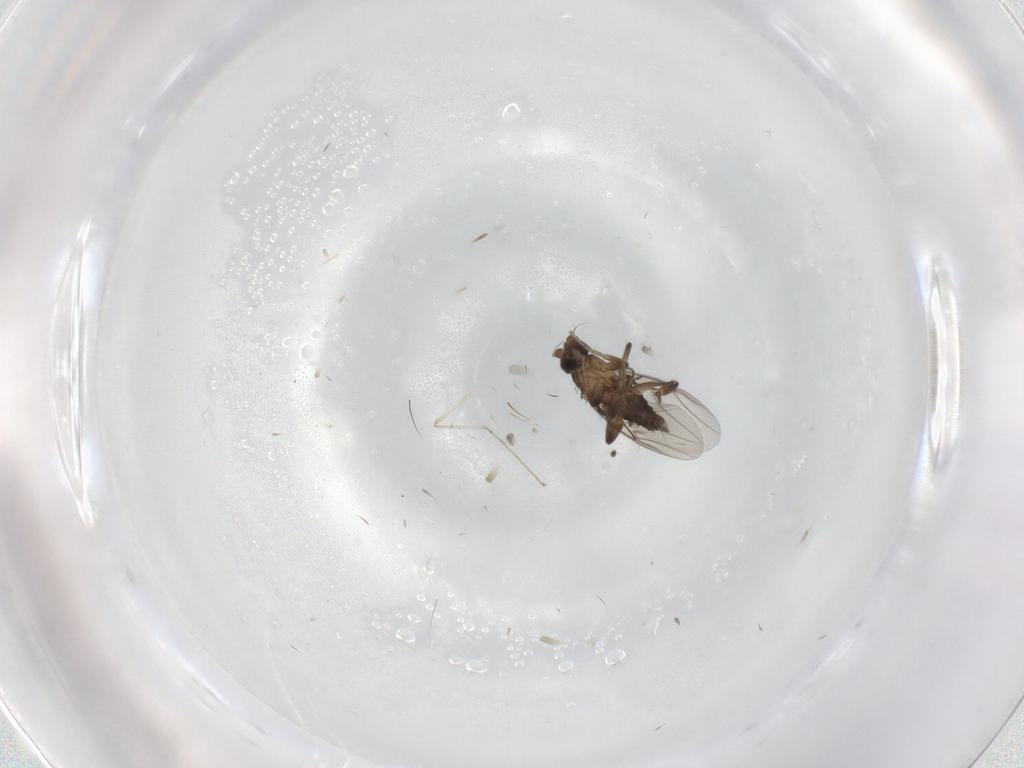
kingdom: Animalia
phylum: Arthropoda
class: Insecta
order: Diptera
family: Cecidomyiidae
